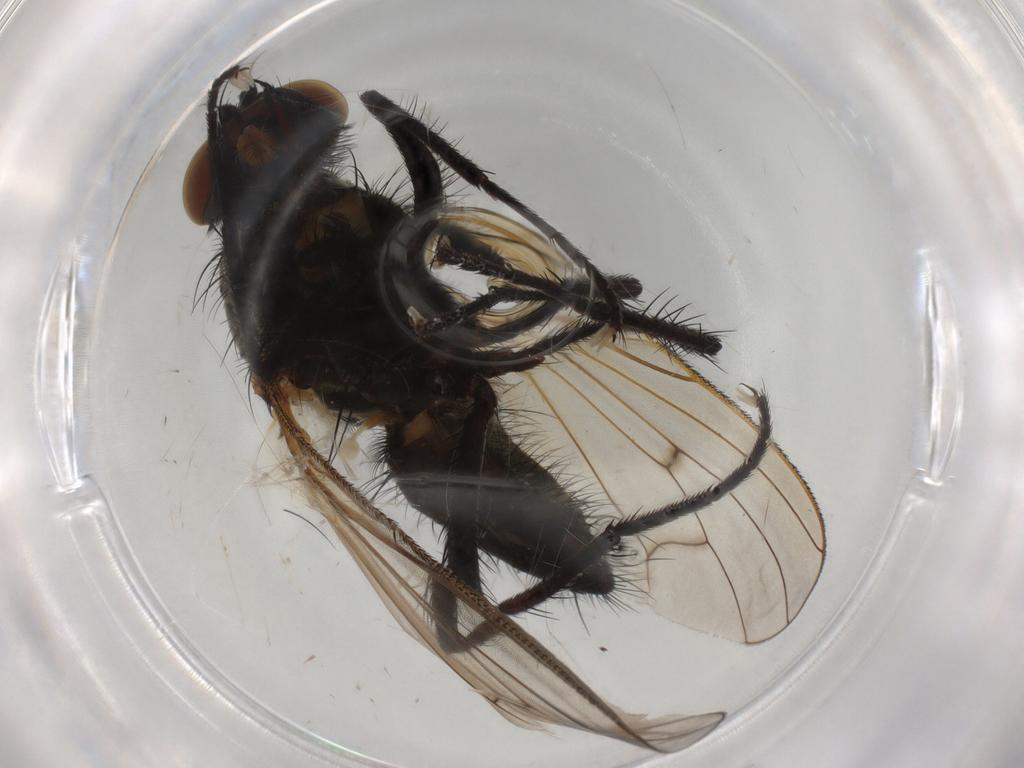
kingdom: Animalia
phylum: Arthropoda
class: Insecta
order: Diptera
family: Anthomyiidae
